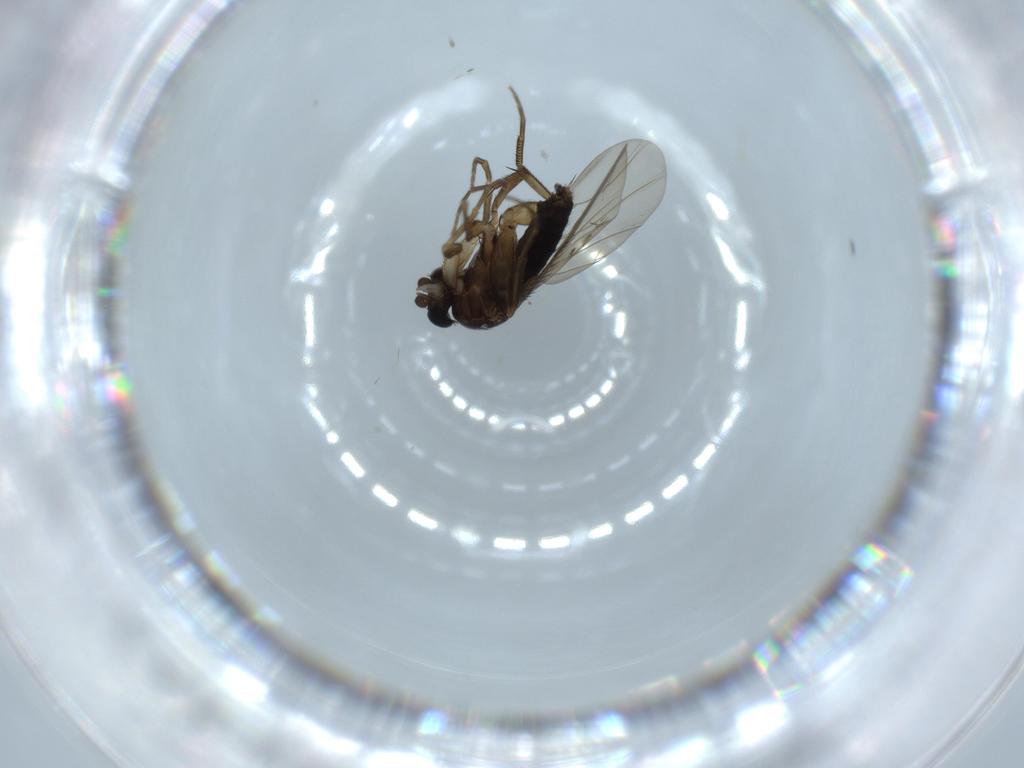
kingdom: Animalia
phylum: Arthropoda
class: Insecta
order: Diptera
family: Phoridae
